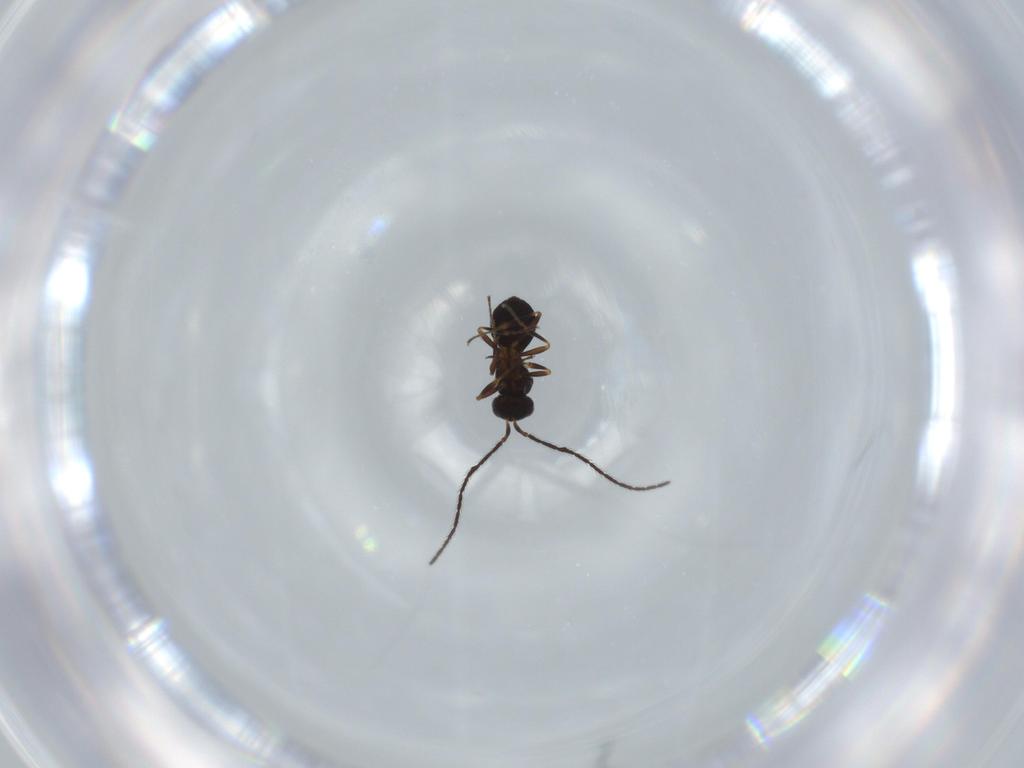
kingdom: Animalia
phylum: Arthropoda
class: Insecta
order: Hymenoptera
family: Scelionidae
